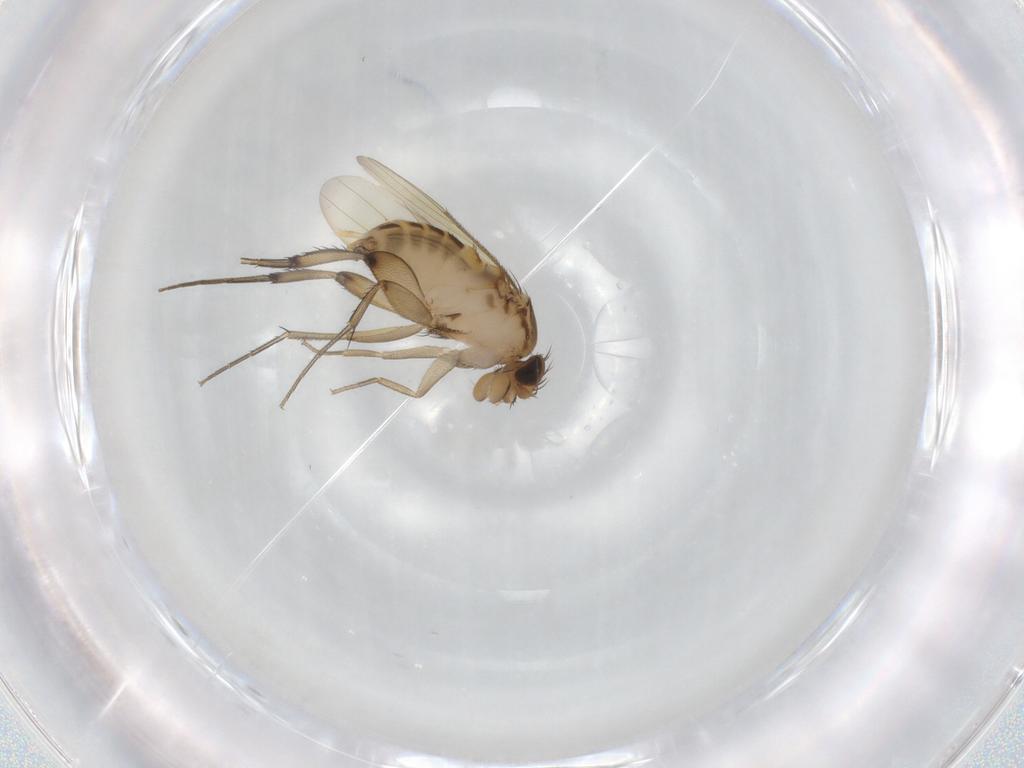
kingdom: Animalia
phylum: Arthropoda
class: Insecta
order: Diptera
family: Phoridae
